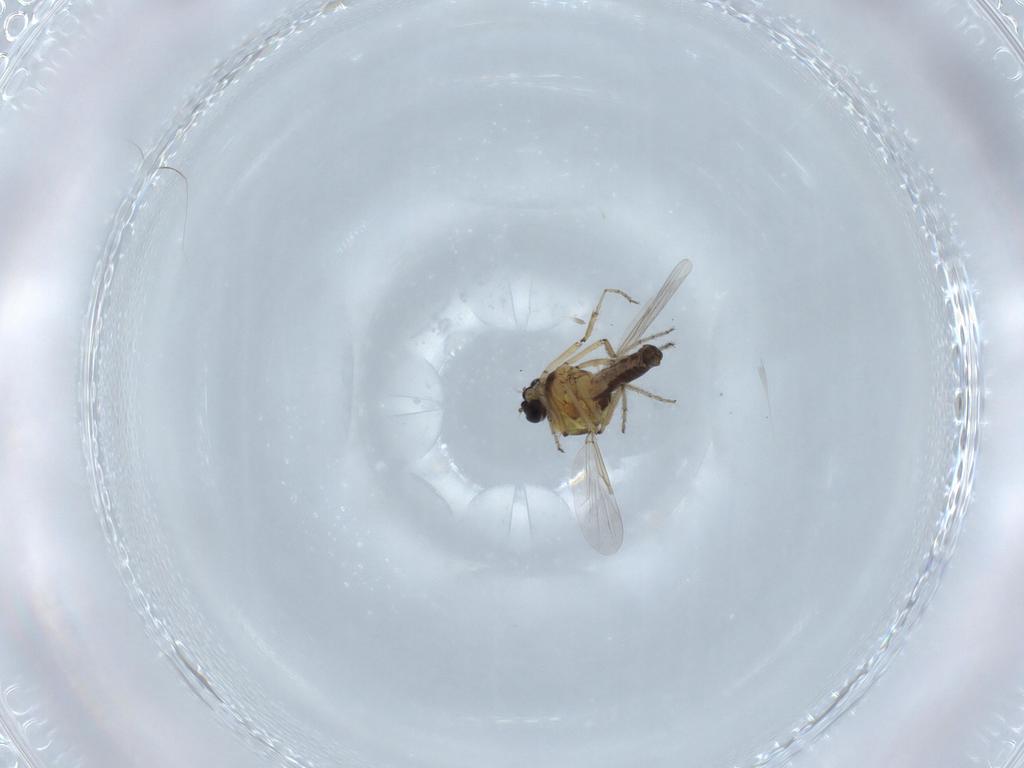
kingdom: Animalia
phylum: Arthropoda
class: Insecta
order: Diptera
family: Ceratopogonidae
